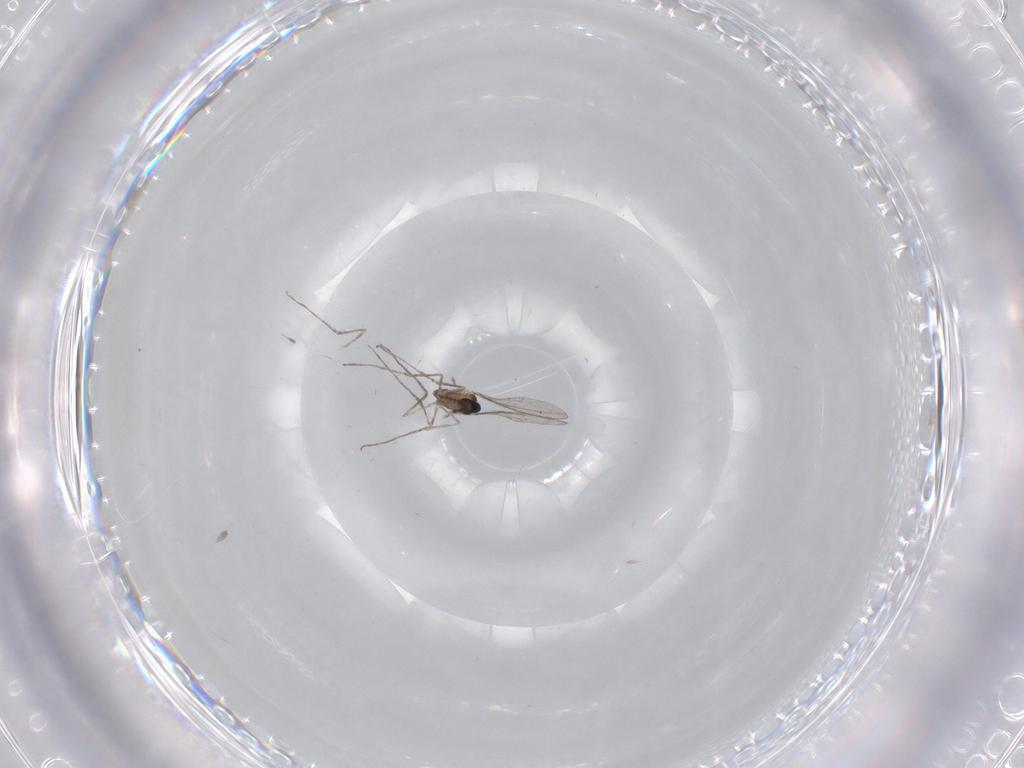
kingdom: Animalia
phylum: Arthropoda
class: Insecta
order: Diptera
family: Cecidomyiidae
